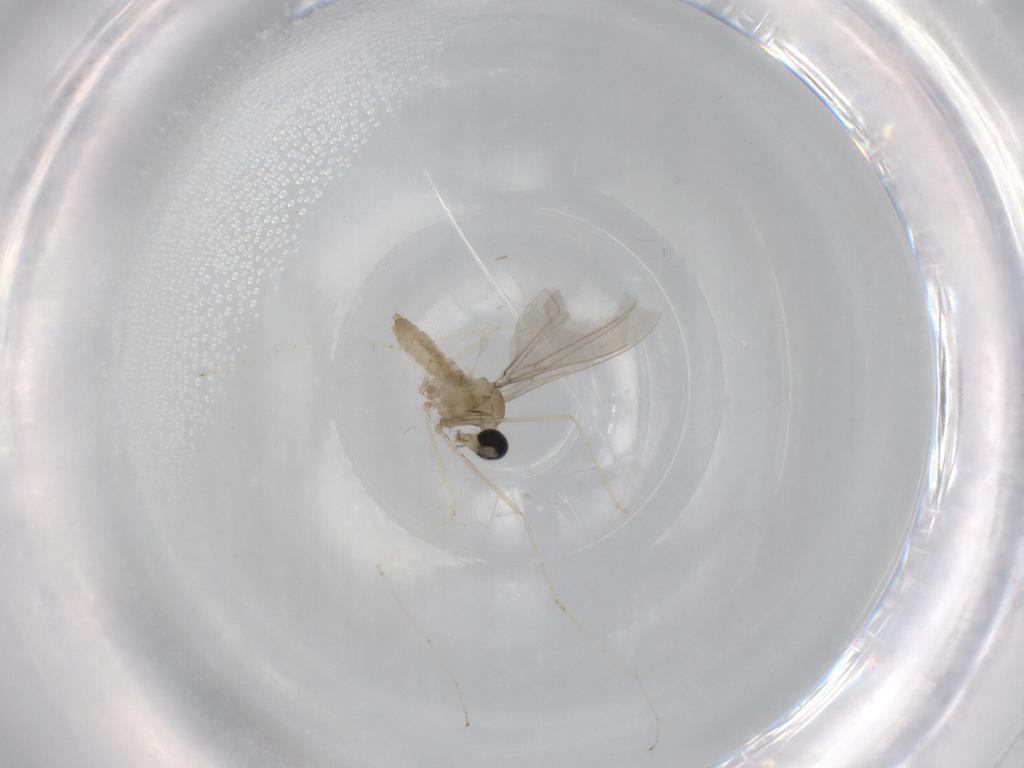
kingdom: Animalia
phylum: Arthropoda
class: Insecta
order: Diptera
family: Cecidomyiidae
